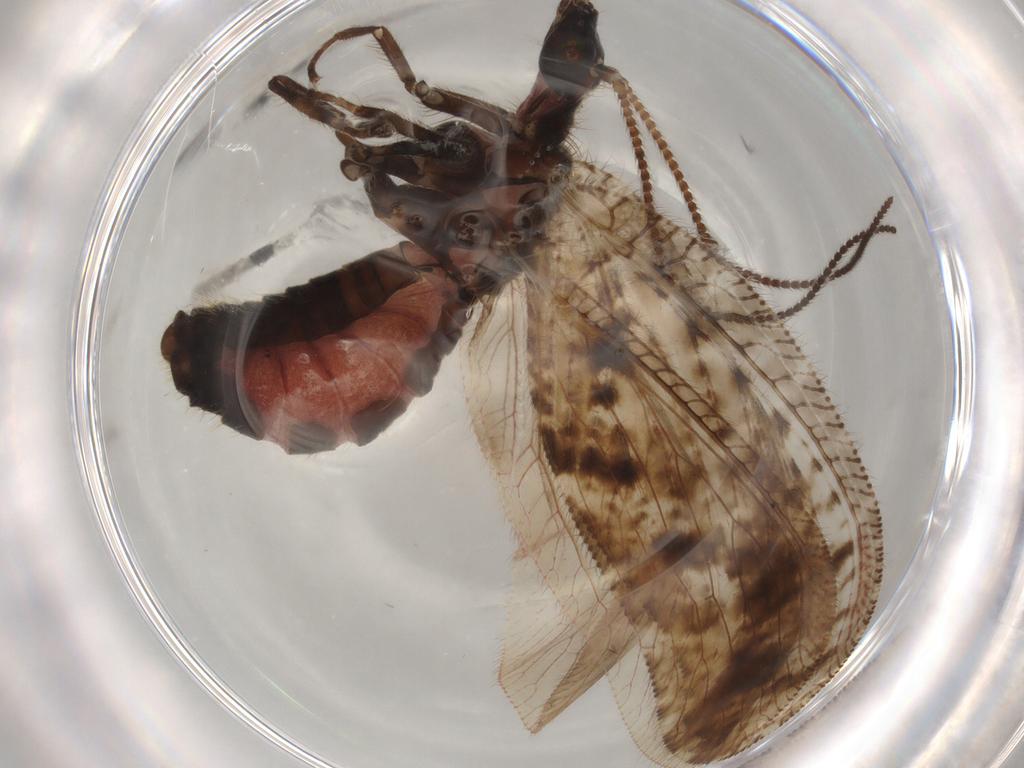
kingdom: Animalia
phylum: Arthropoda
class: Insecta
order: Neuroptera
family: Hemerobiidae
